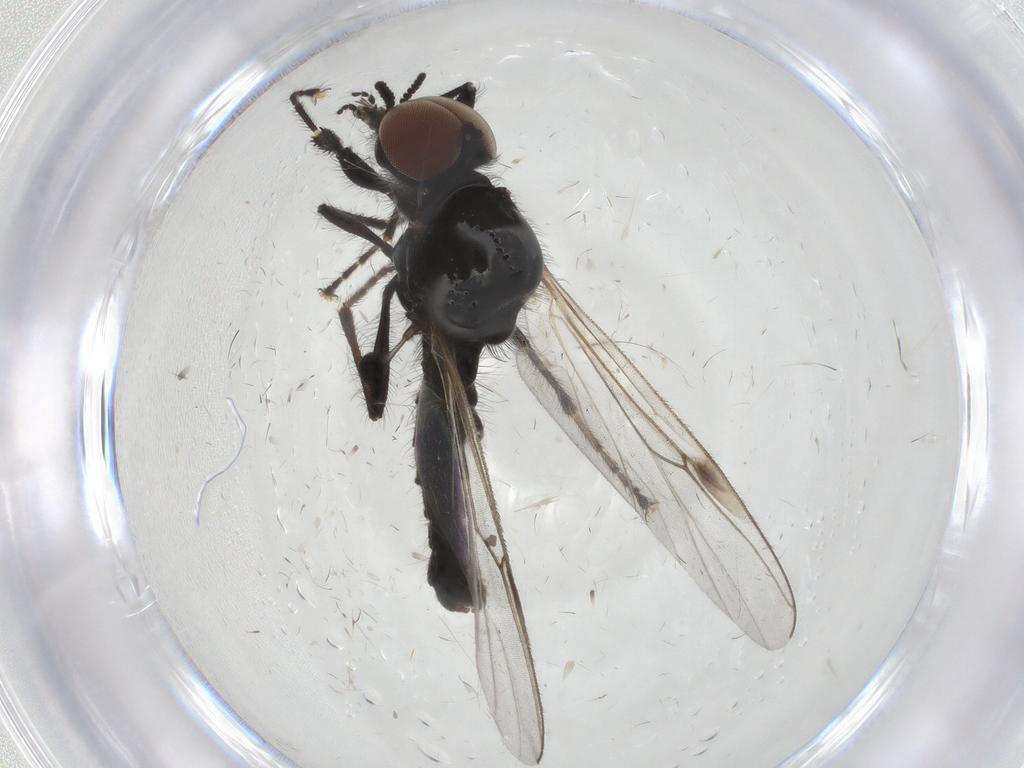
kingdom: Animalia
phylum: Arthropoda
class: Insecta
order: Diptera
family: Bibionidae
